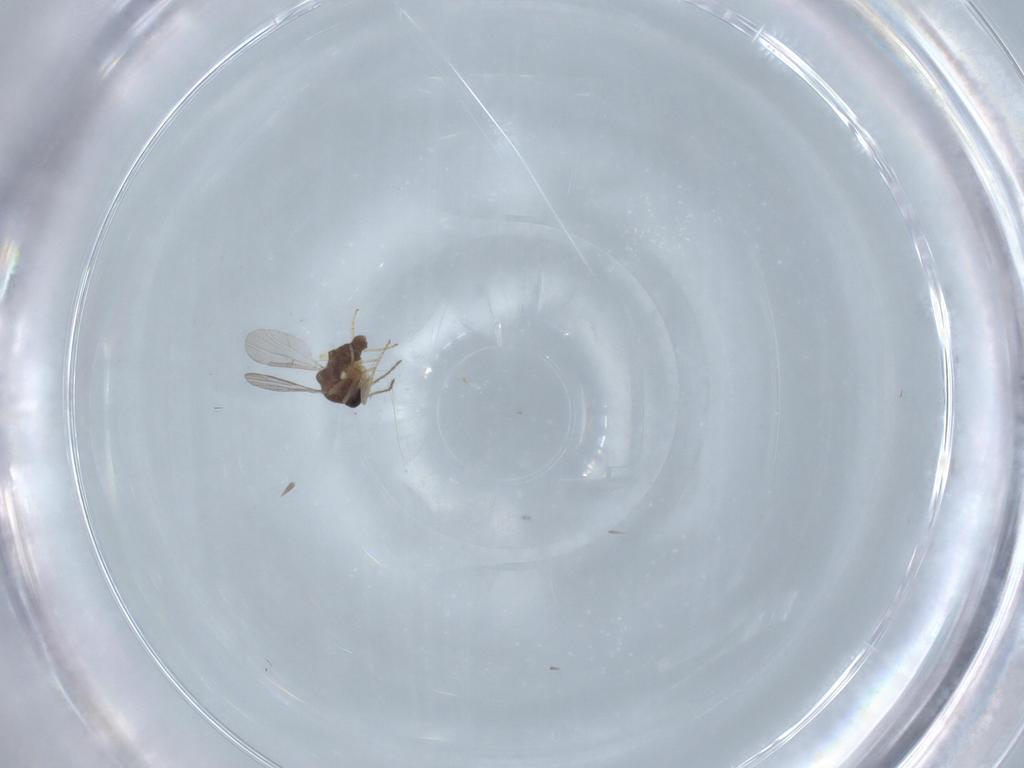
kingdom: Animalia
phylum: Arthropoda
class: Insecta
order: Diptera
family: Ceratopogonidae
